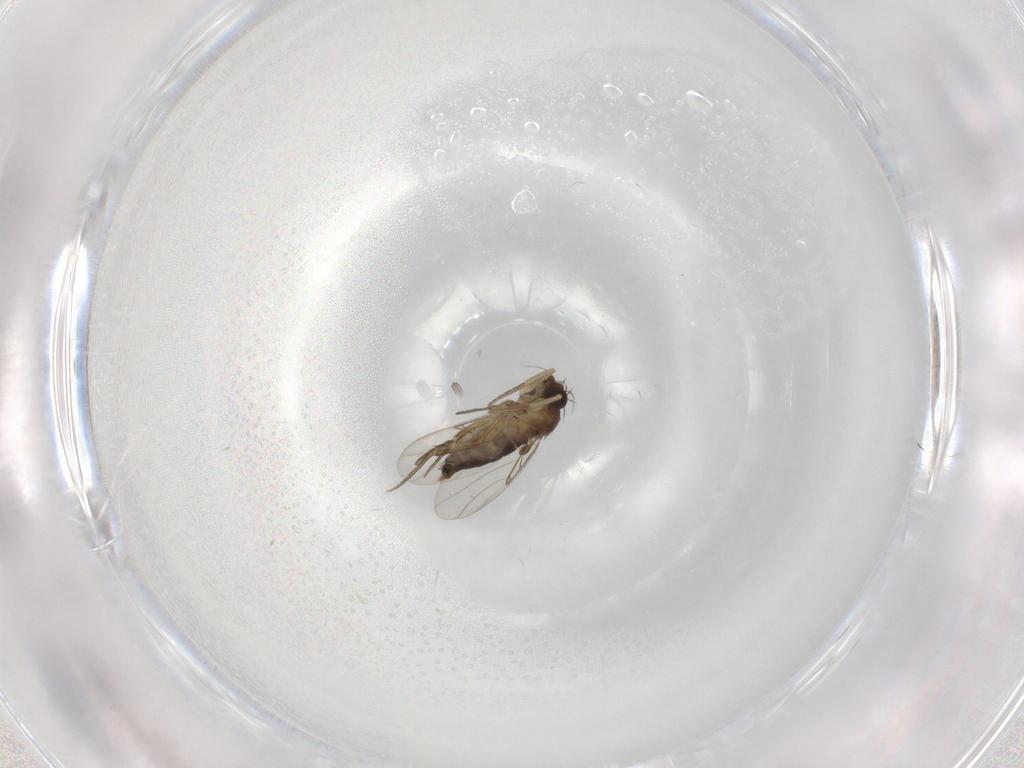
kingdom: Animalia
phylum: Arthropoda
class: Insecta
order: Diptera
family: Phoridae
